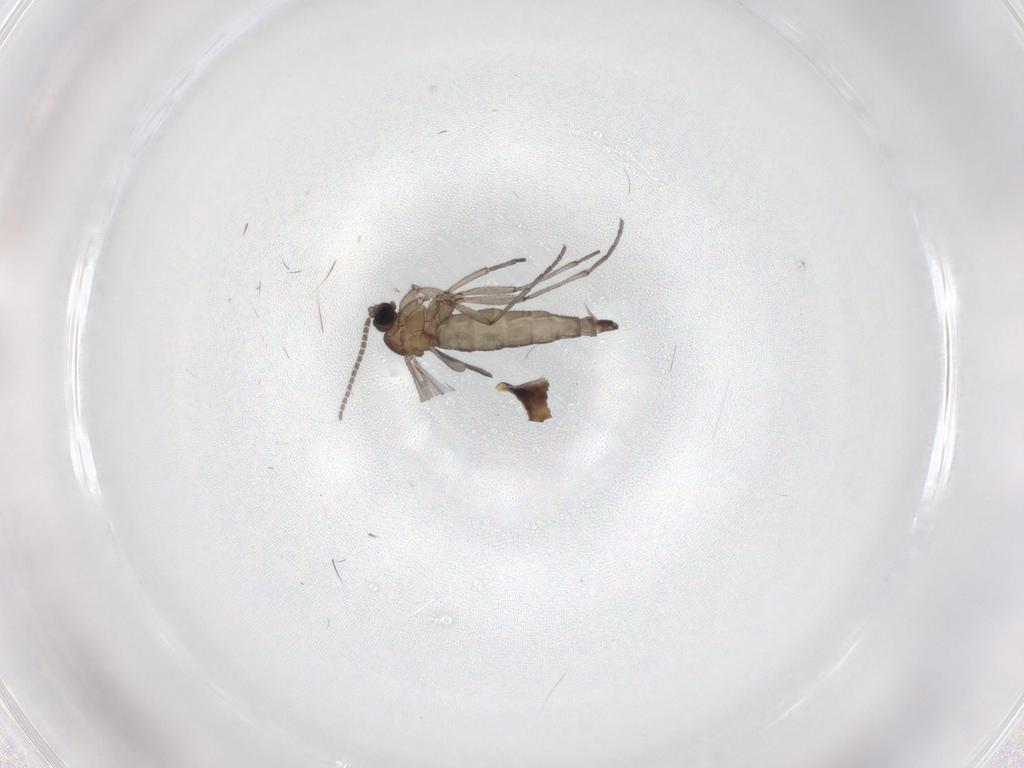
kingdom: Animalia
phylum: Arthropoda
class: Insecta
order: Diptera
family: Sciaridae
